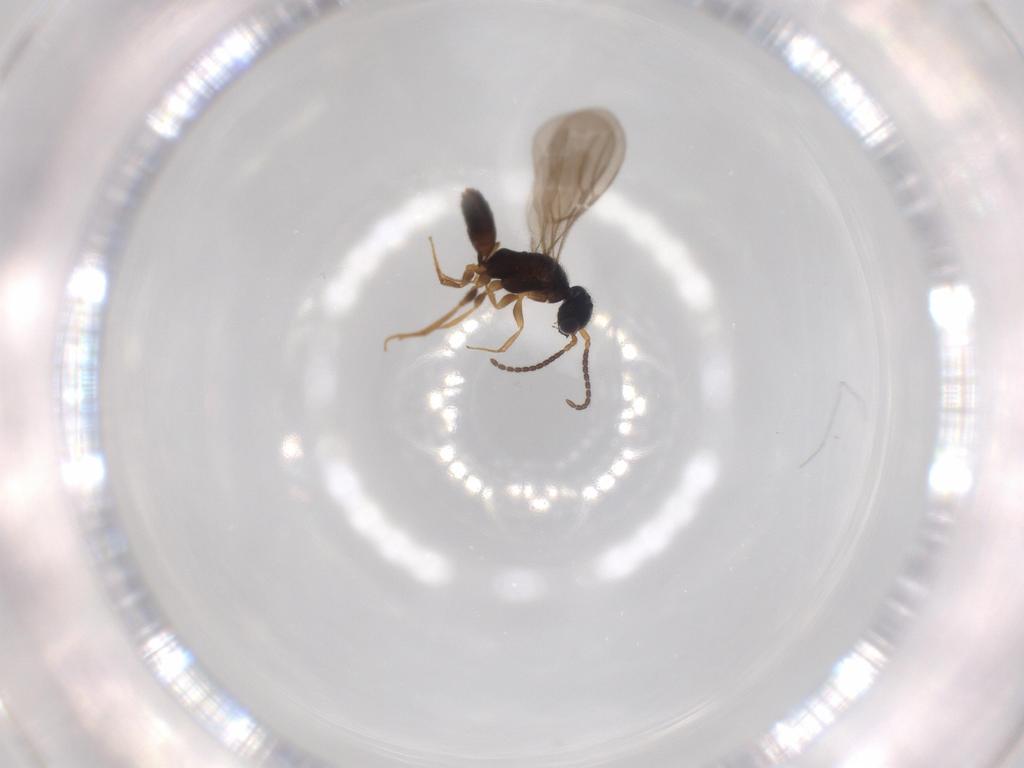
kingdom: Animalia
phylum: Arthropoda
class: Insecta
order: Hymenoptera
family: Bethylidae
